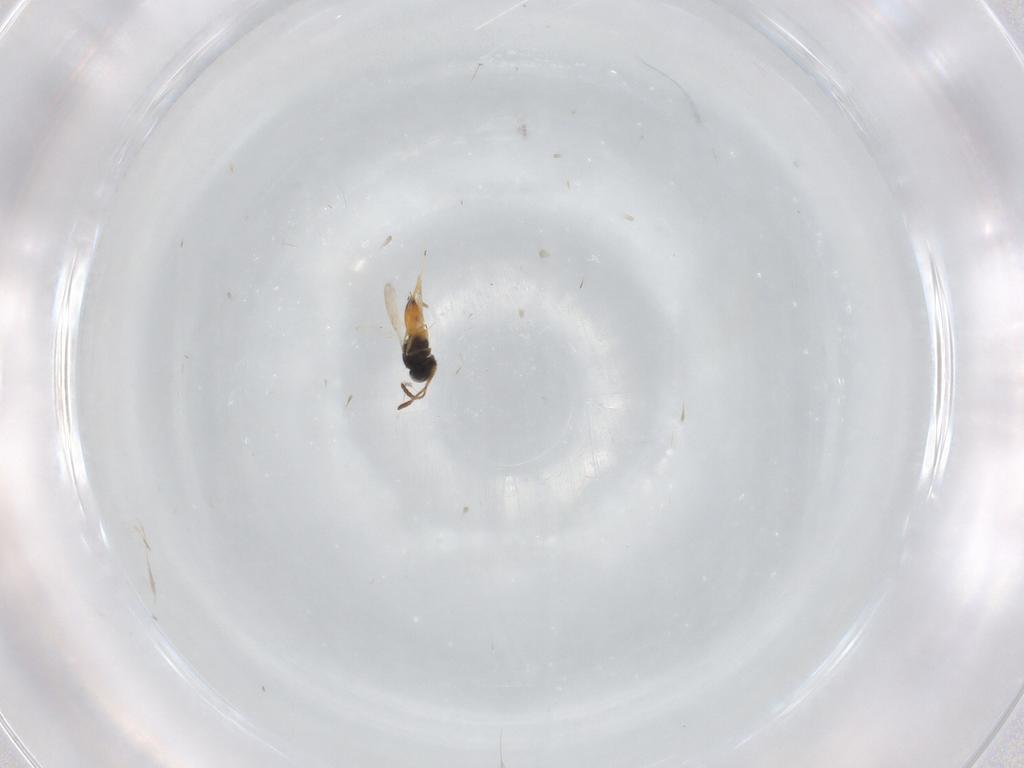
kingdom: Animalia
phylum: Arthropoda
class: Insecta
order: Hymenoptera
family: Scelionidae
